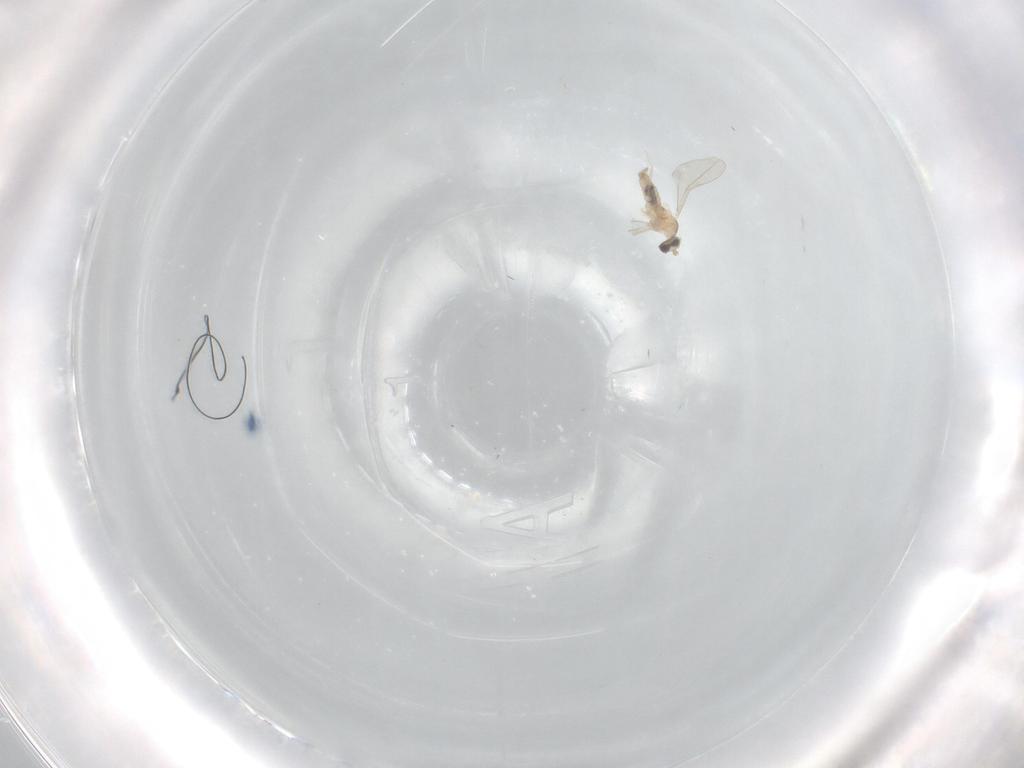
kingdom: Animalia
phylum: Arthropoda
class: Insecta
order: Diptera
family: Cecidomyiidae
